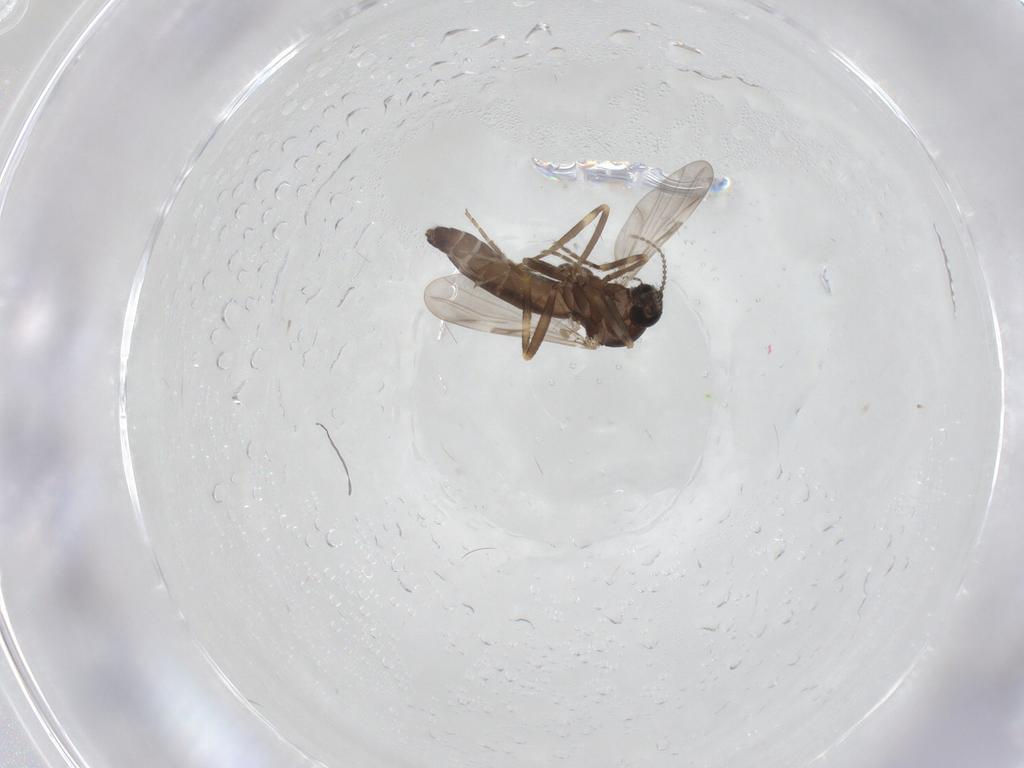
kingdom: Animalia
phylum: Arthropoda
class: Insecta
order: Diptera
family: Ceratopogonidae
